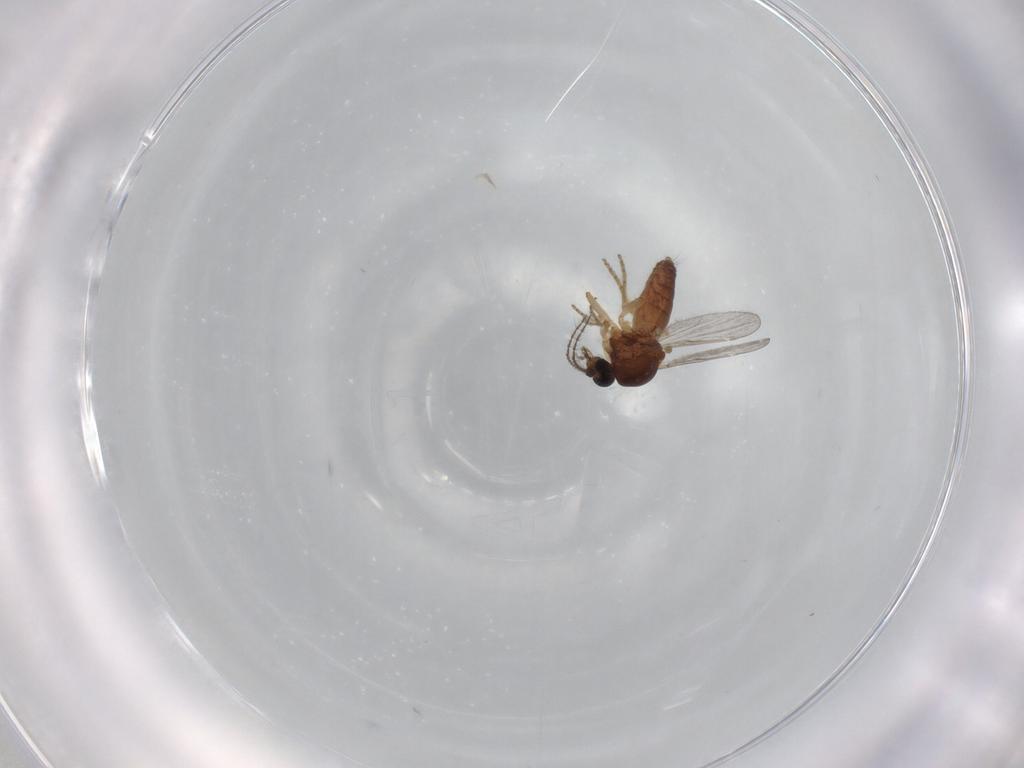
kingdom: Animalia
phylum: Arthropoda
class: Insecta
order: Diptera
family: Ceratopogonidae
